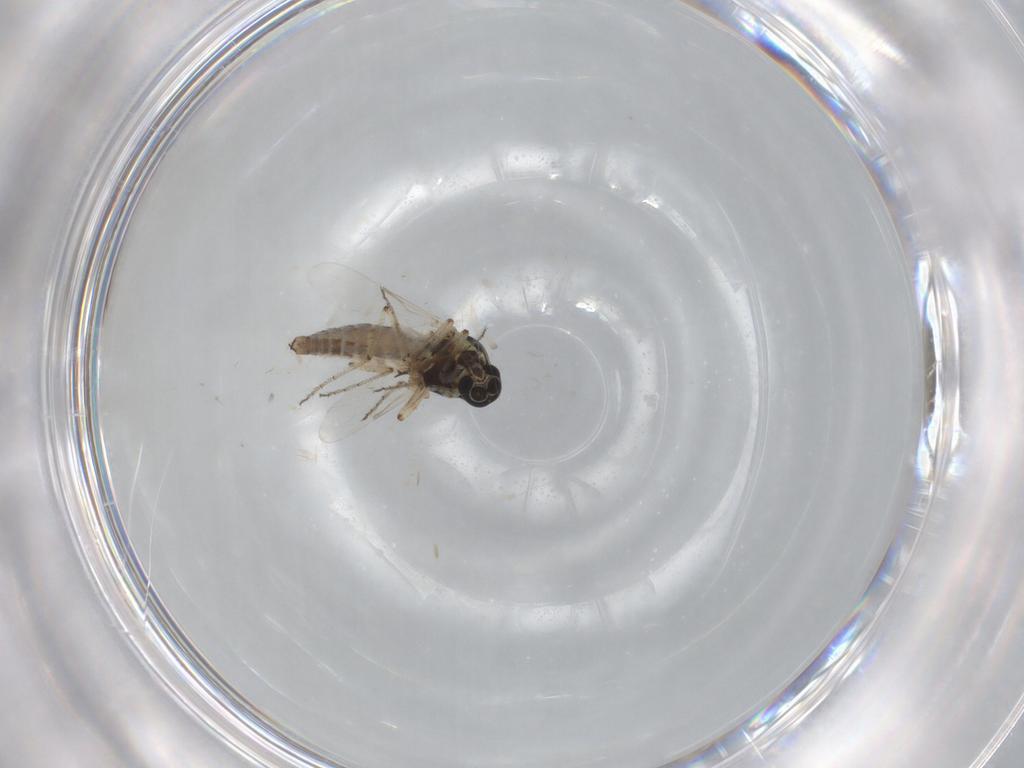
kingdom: Animalia
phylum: Arthropoda
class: Insecta
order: Diptera
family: Ceratopogonidae
